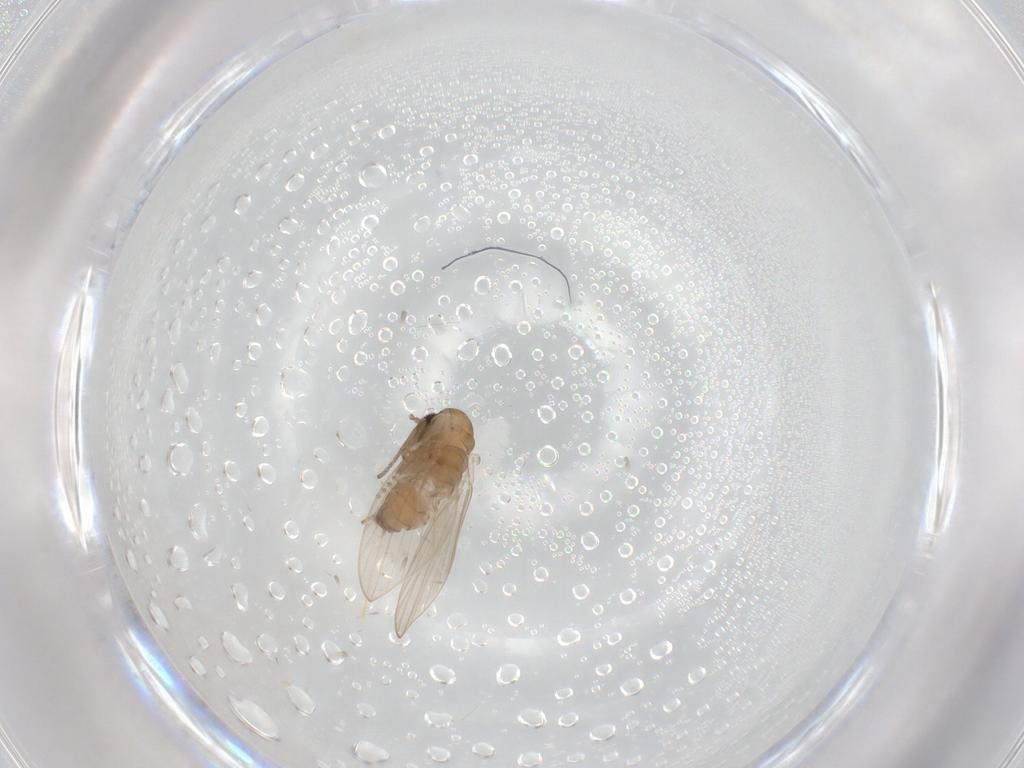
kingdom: Animalia
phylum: Arthropoda
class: Insecta
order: Diptera
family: Psychodidae
